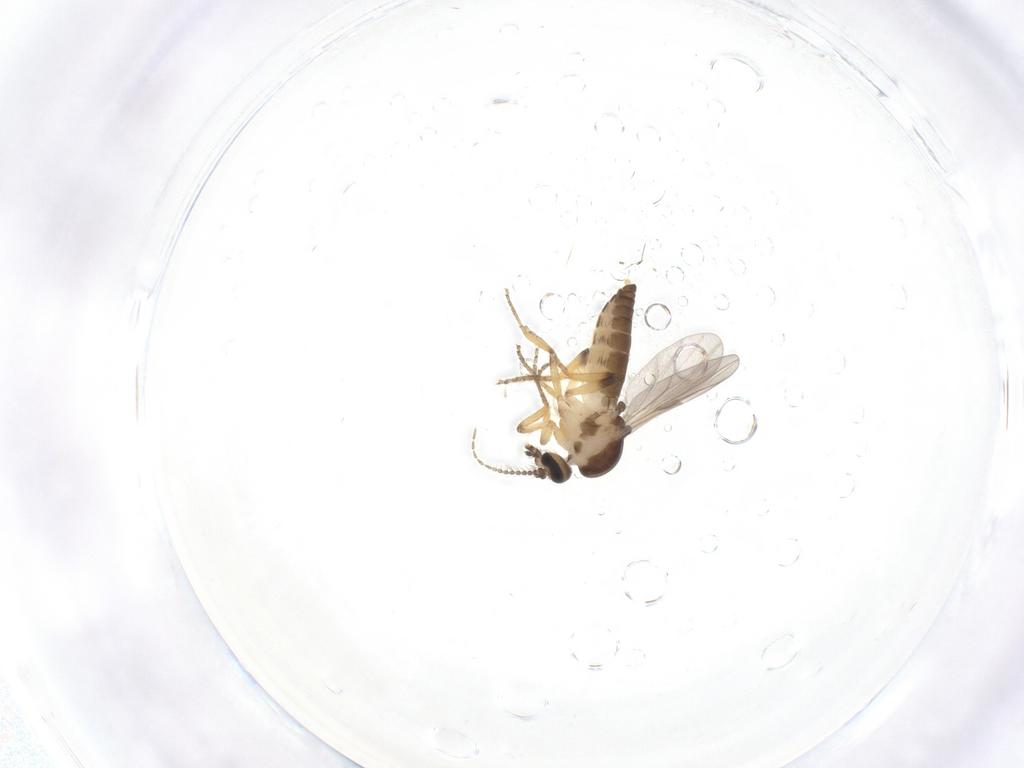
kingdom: Animalia
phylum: Arthropoda
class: Insecta
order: Diptera
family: Ceratopogonidae
